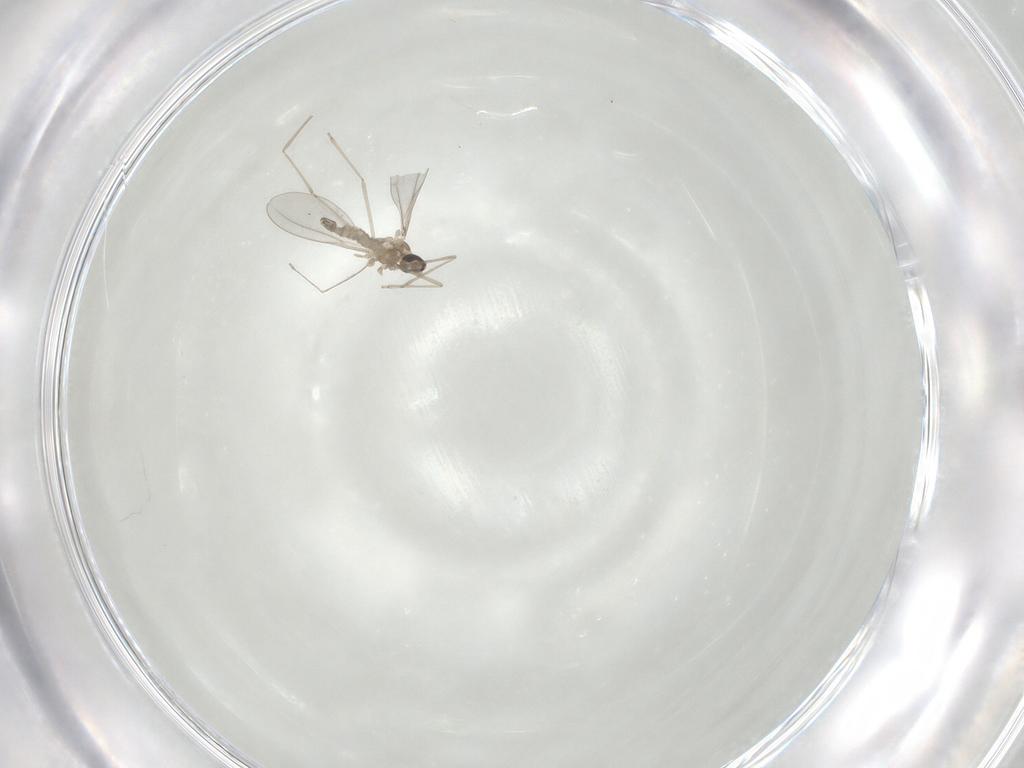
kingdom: Animalia
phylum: Arthropoda
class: Insecta
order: Diptera
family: Cecidomyiidae
